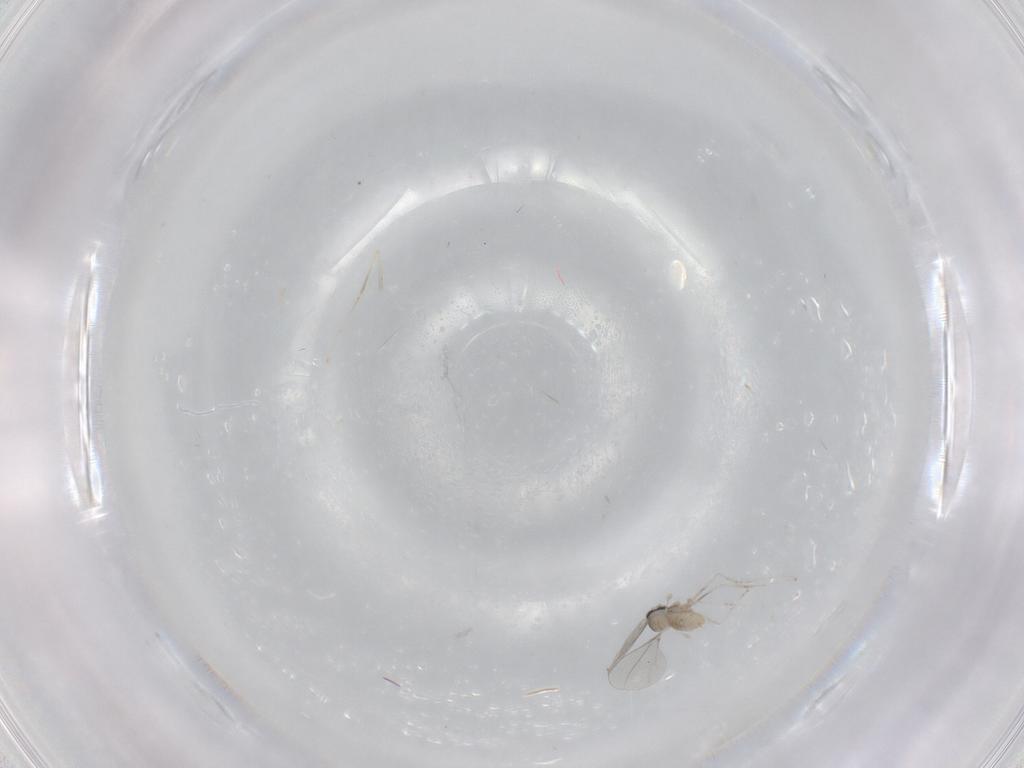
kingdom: Animalia
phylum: Arthropoda
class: Insecta
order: Diptera
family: Cecidomyiidae
